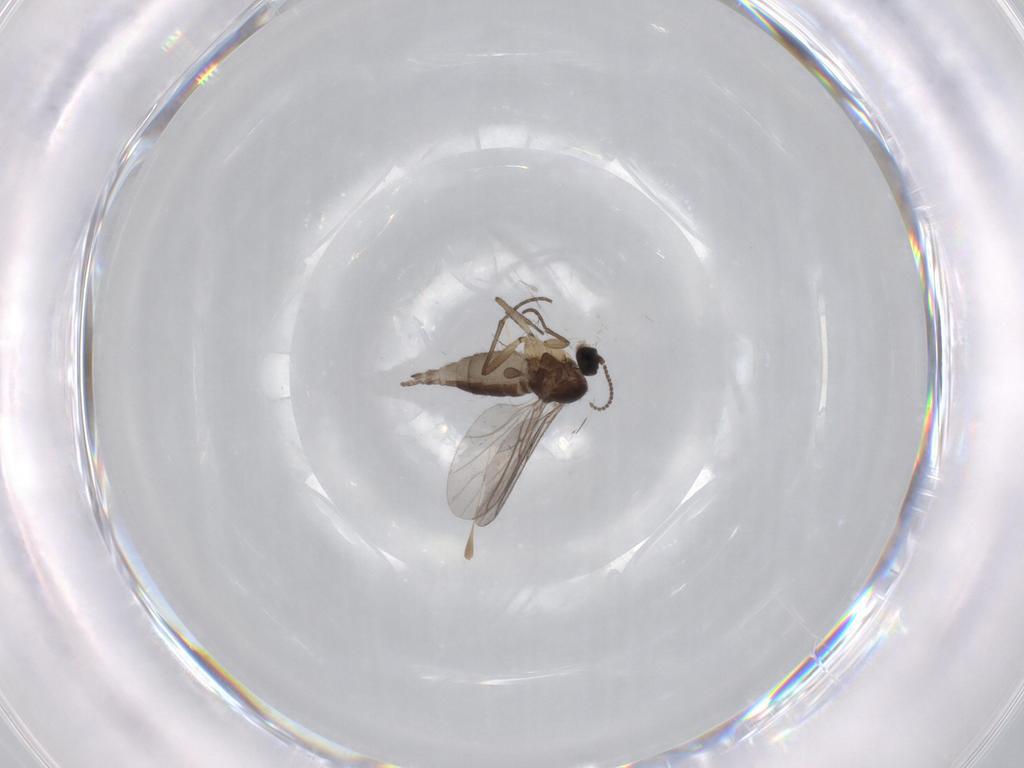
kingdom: Animalia
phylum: Arthropoda
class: Insecta
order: Diptera
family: Sciaridae
